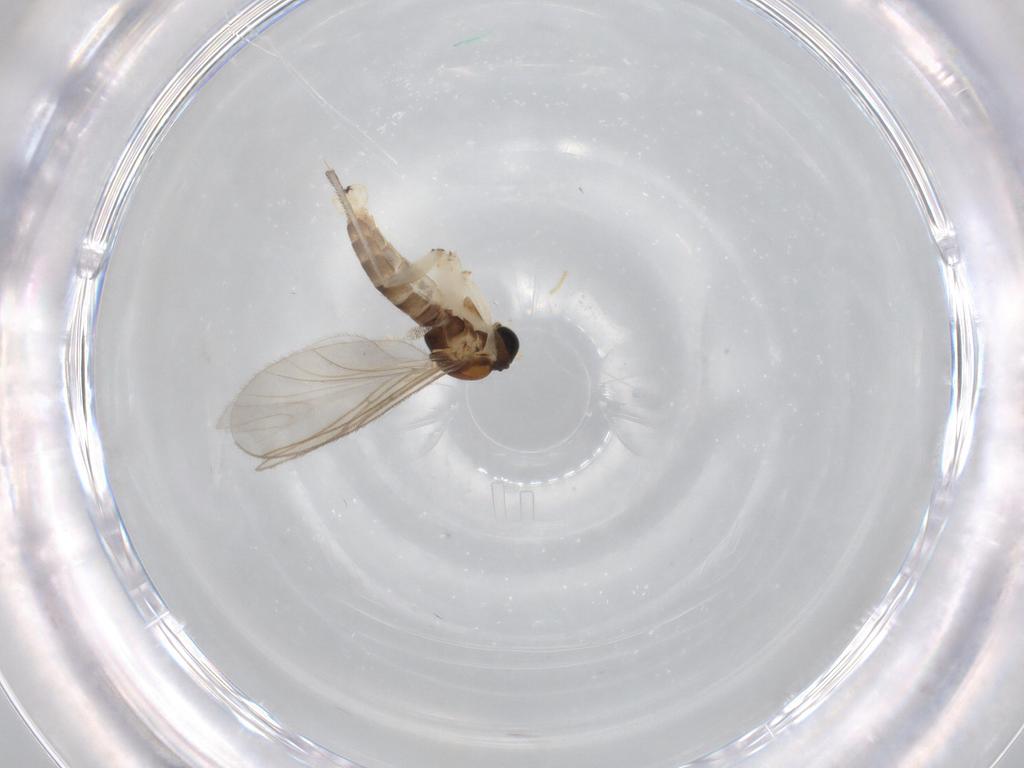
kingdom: Animalia
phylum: Arthropoda
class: Insecta
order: Diptera
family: Sciaridae
